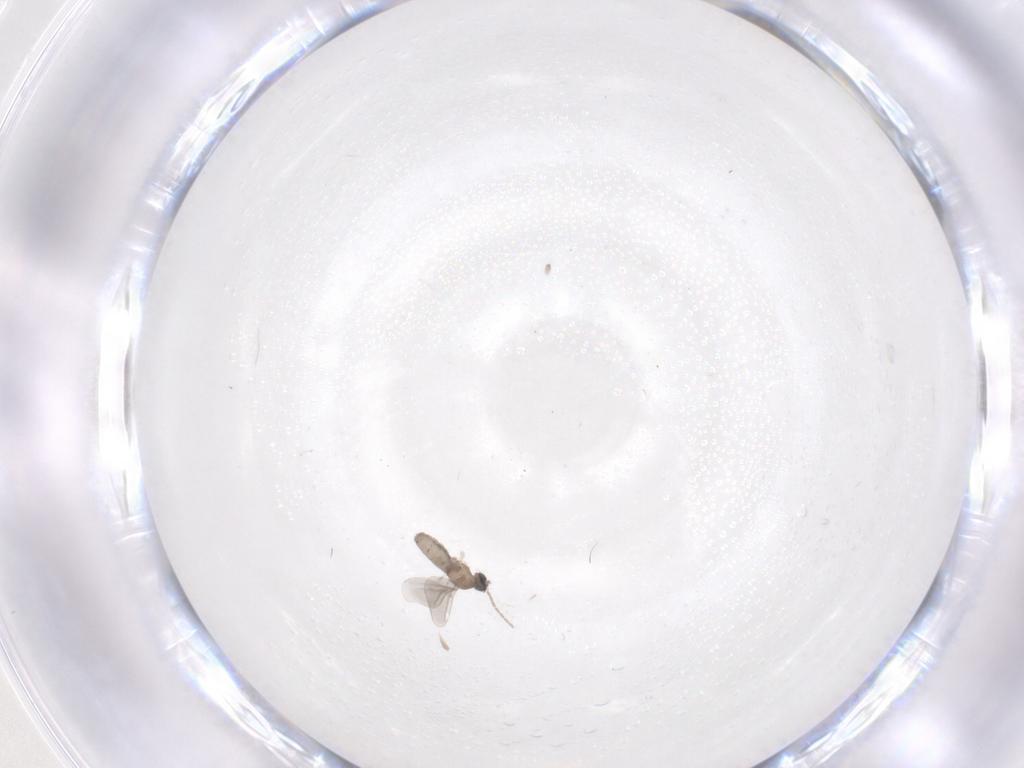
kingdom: Animalia
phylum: Arthropoda
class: Insecta
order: Diptera
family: Cecidomyiidae
